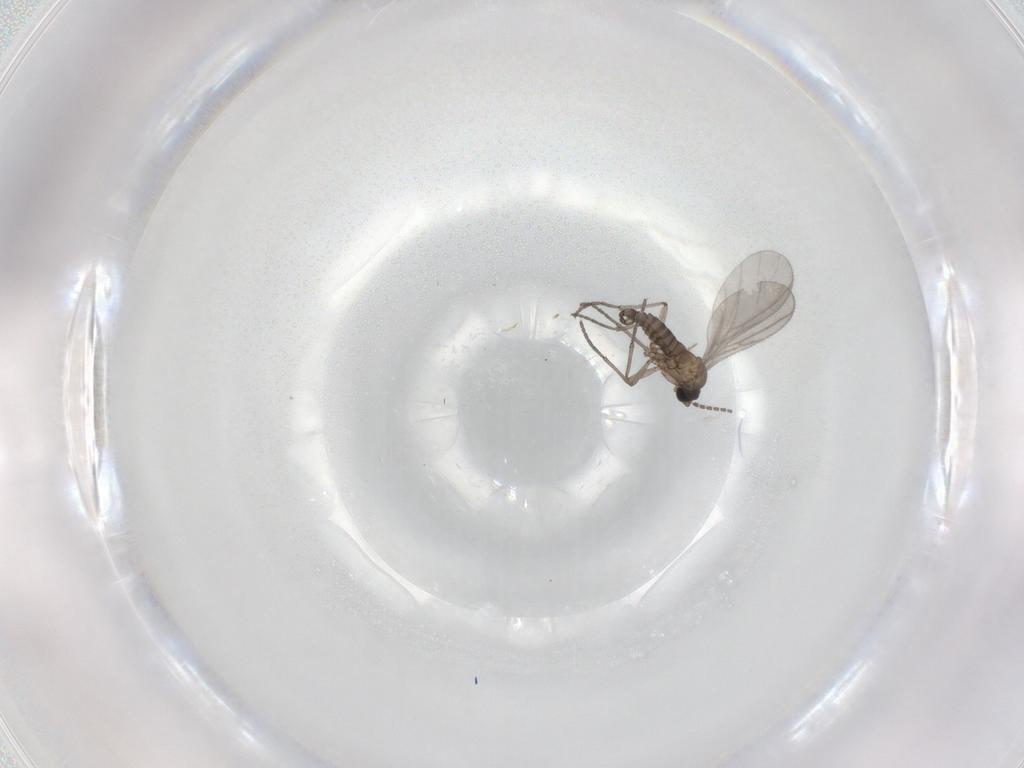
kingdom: Animalia
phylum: Arthropoda
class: Insecta
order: Diptera
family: Sciaridae
